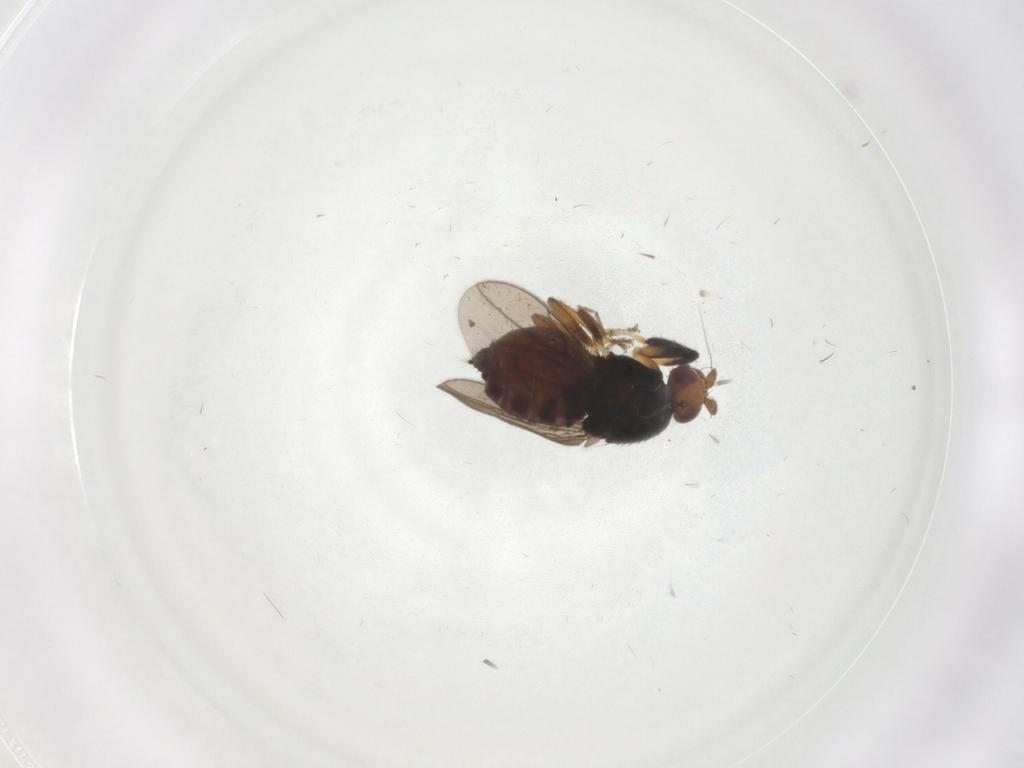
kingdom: Animalia
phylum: Arthropoda
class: Insecta
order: Diptera
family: Sphaeroceridae
